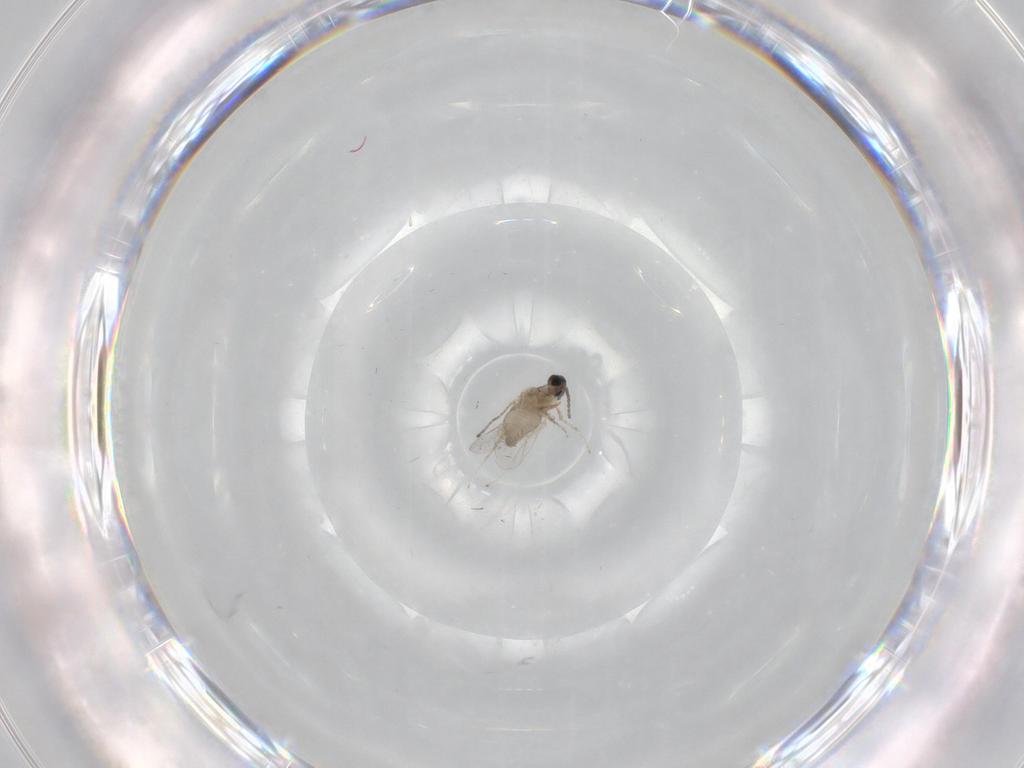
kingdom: Animalia
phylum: Arthropoda
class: Insecta
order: Diptera
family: Cecidomyiidae
